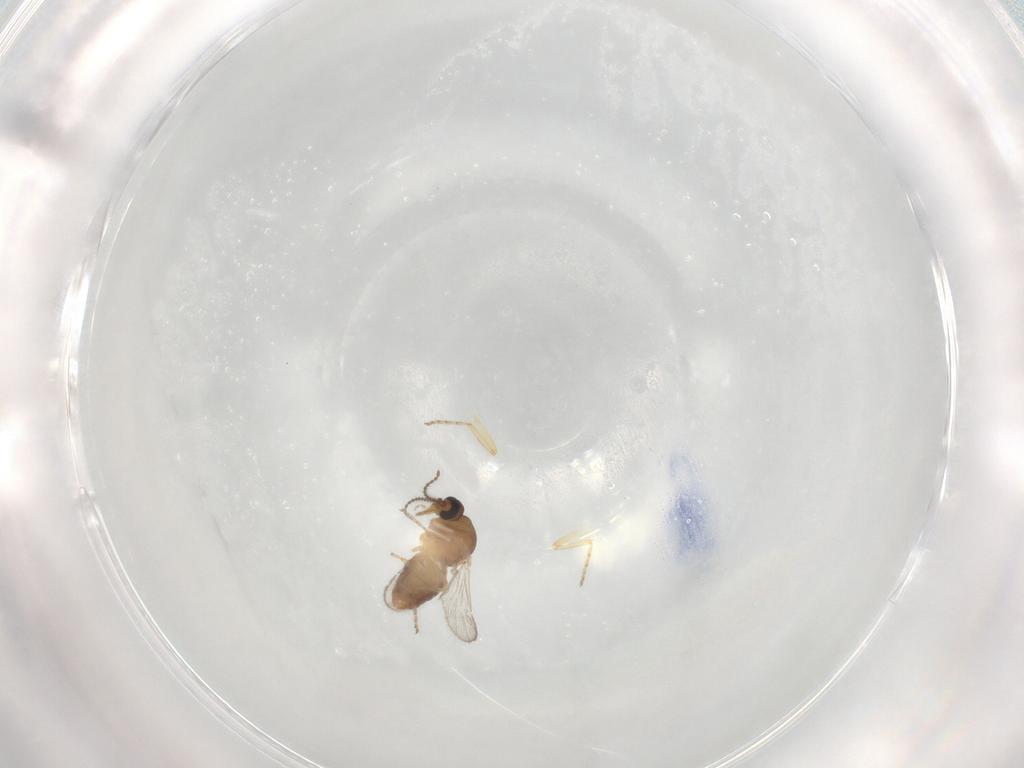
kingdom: Animalia
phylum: Arthropoda
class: Insecta
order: Diptera
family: Ceratopogonidae
